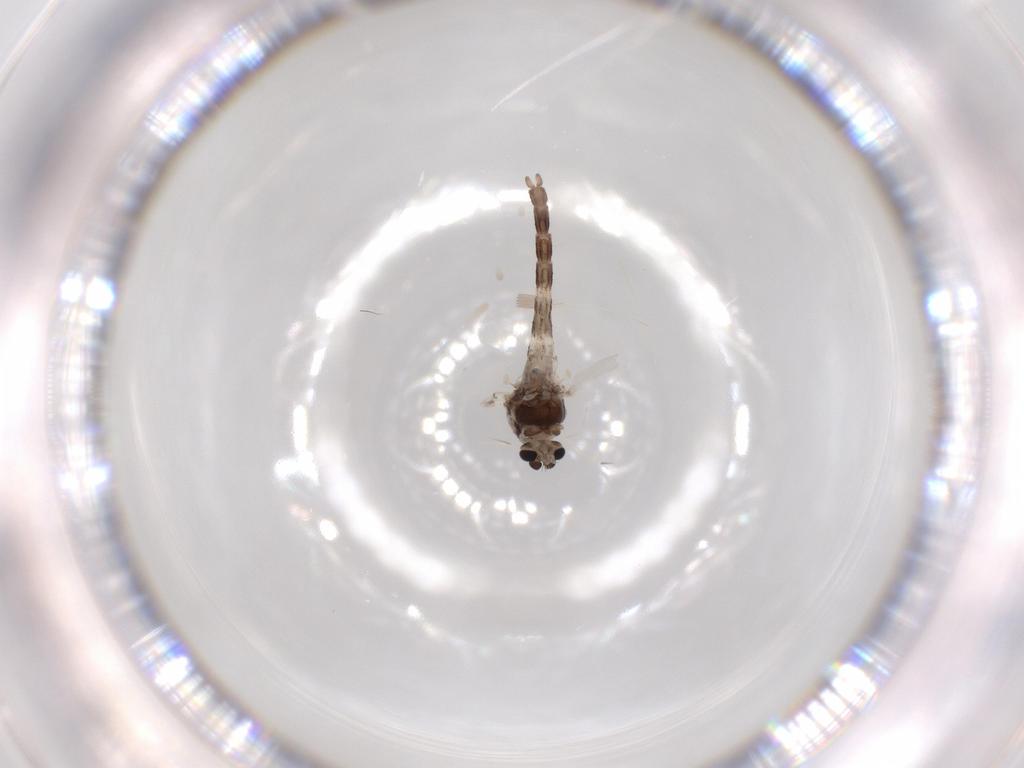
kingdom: Animalia
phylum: Arthropoda
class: Insecta
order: Diptera
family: Chironomidae
